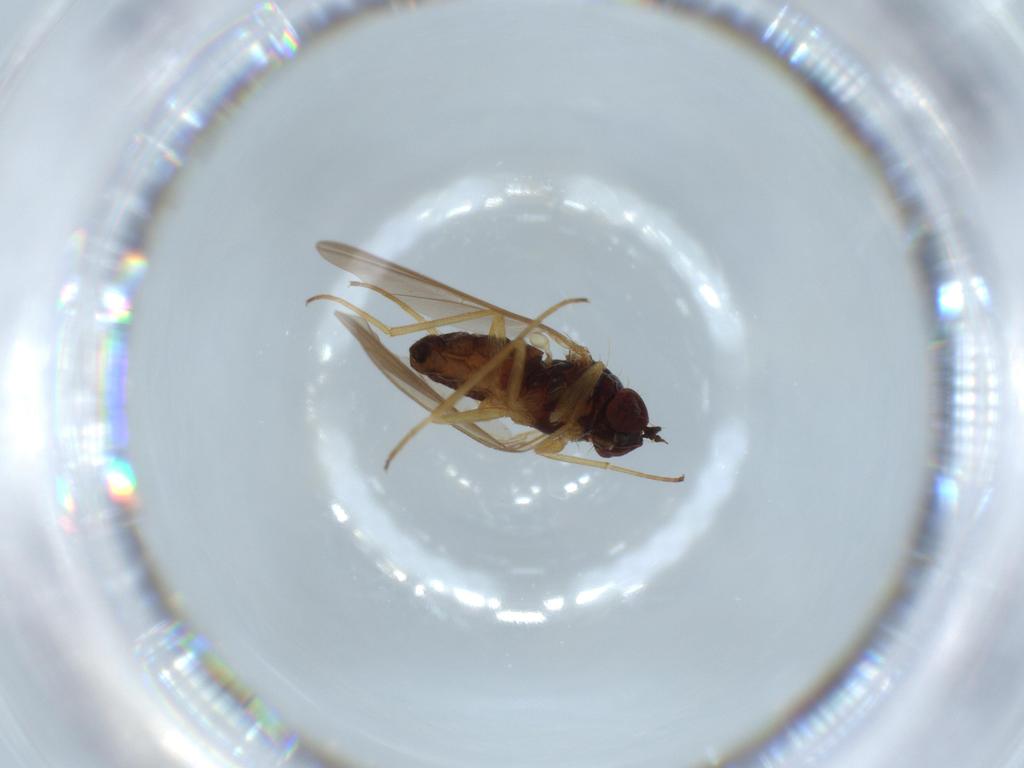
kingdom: Animalia
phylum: Arthropoda
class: Insecta
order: Diptera
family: Dolichopodidae
